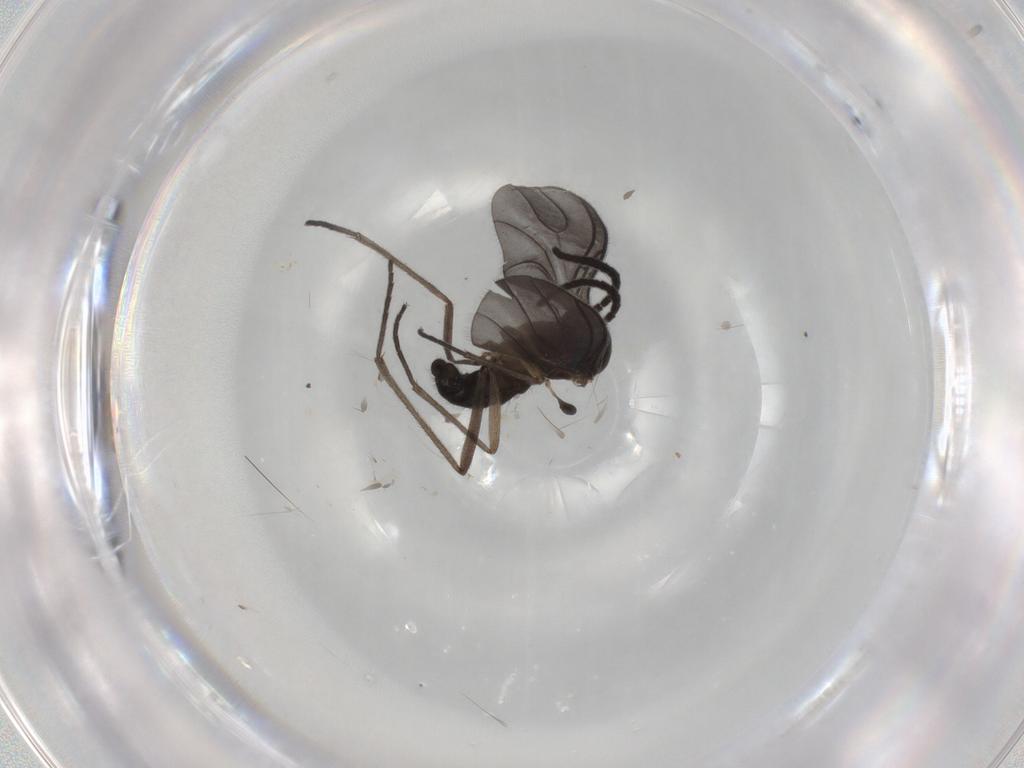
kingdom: Animalia
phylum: Arthropoda
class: Insecta
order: Diptera
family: Sciaridae
